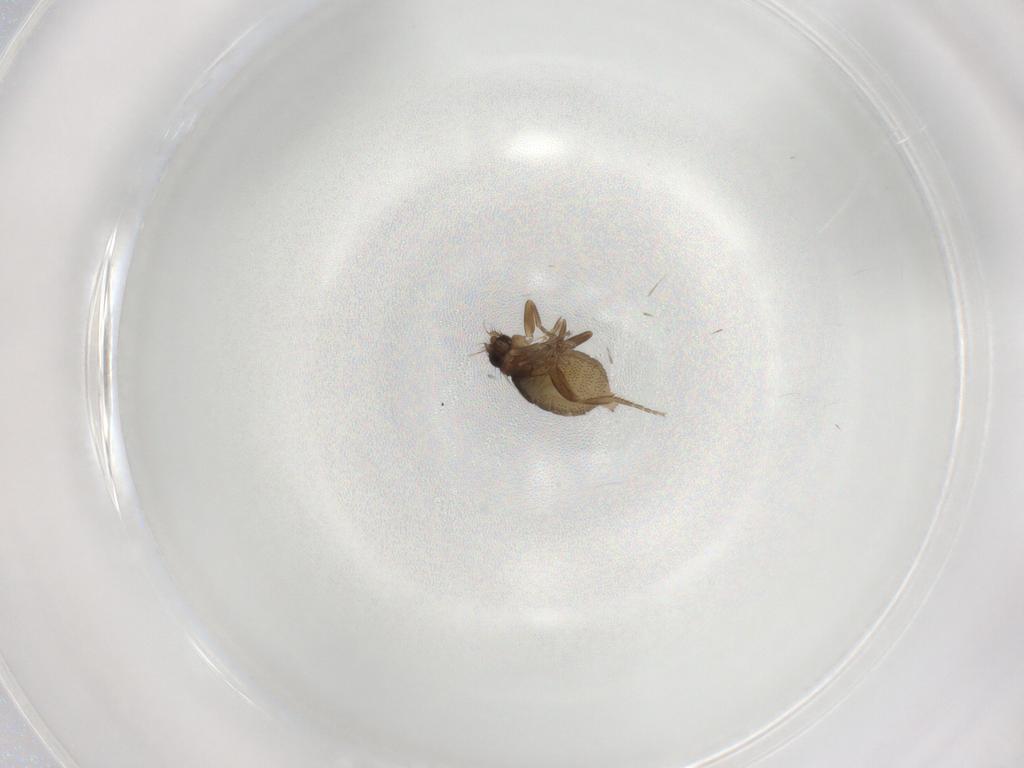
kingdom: Animalia
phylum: Arthropoda
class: Insecta
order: Diptera
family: Phoridae
